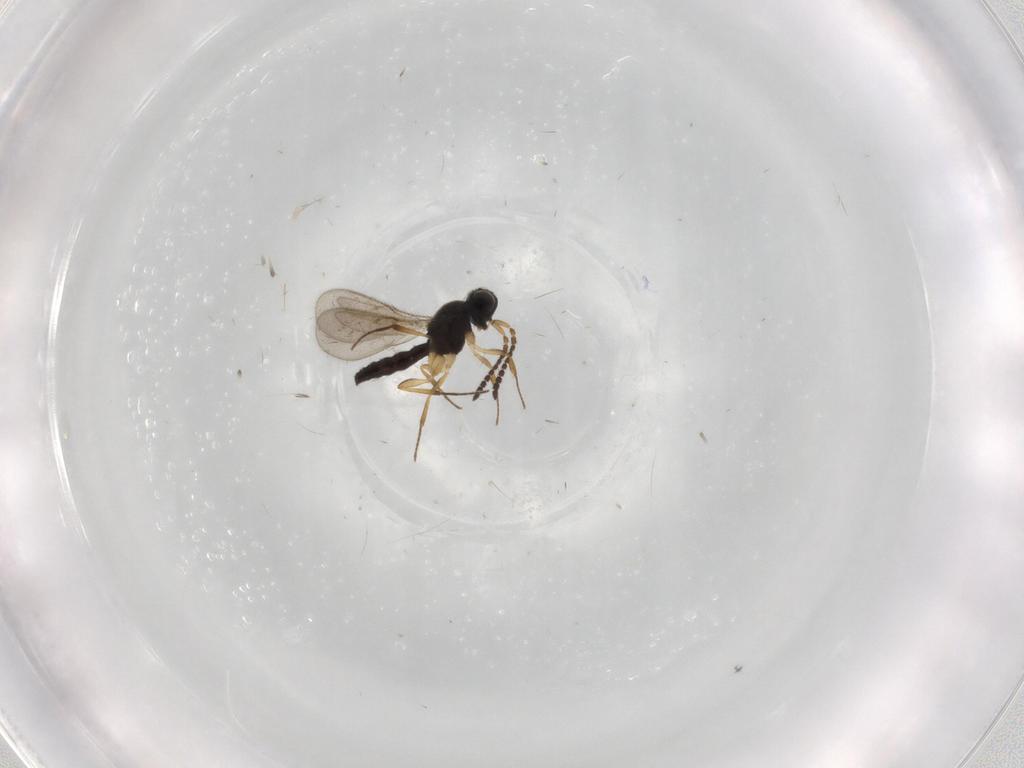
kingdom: Animalia
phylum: Arthropoda
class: Insecta
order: Hymenoptera
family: Scelionidae
